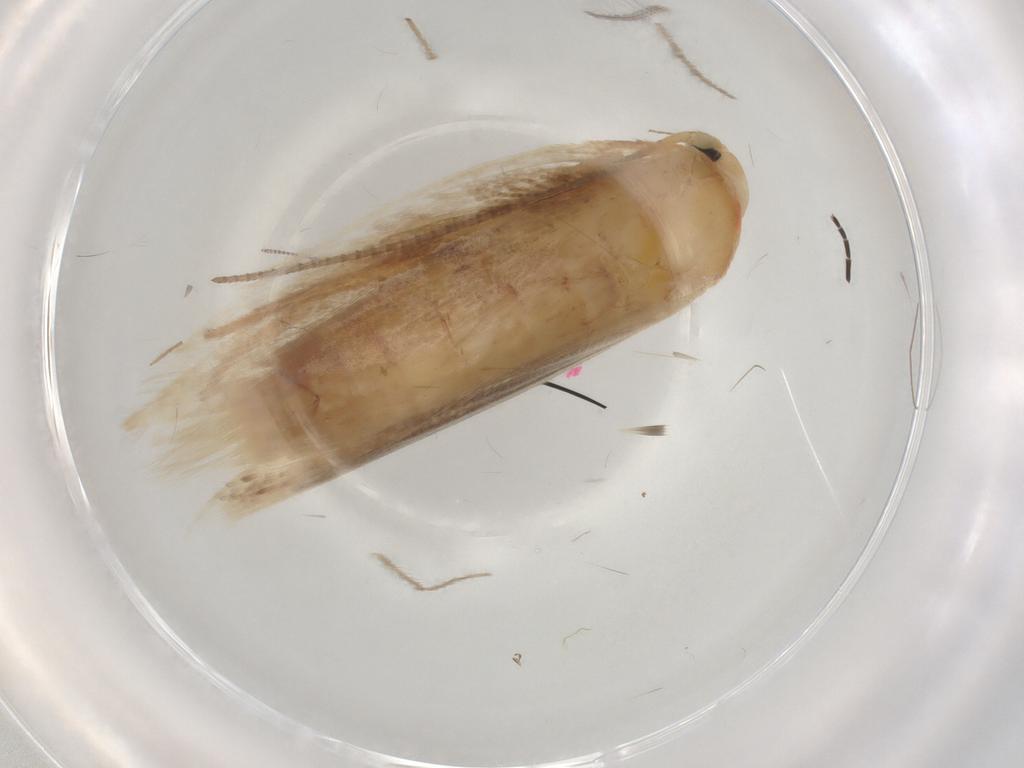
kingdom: Animalia
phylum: Arthropoda
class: Insecta
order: Lepidoptera
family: Geometridae
